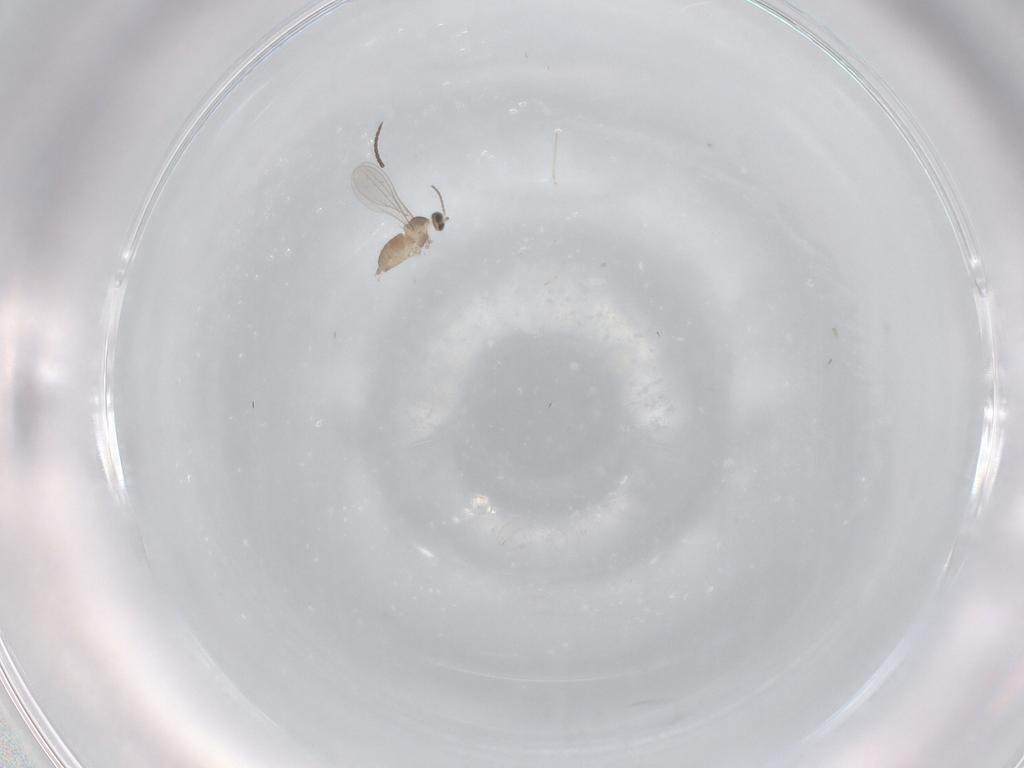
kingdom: Animalia
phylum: Arthropoda
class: Insecta
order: Diptera
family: Cecidomyiidae
